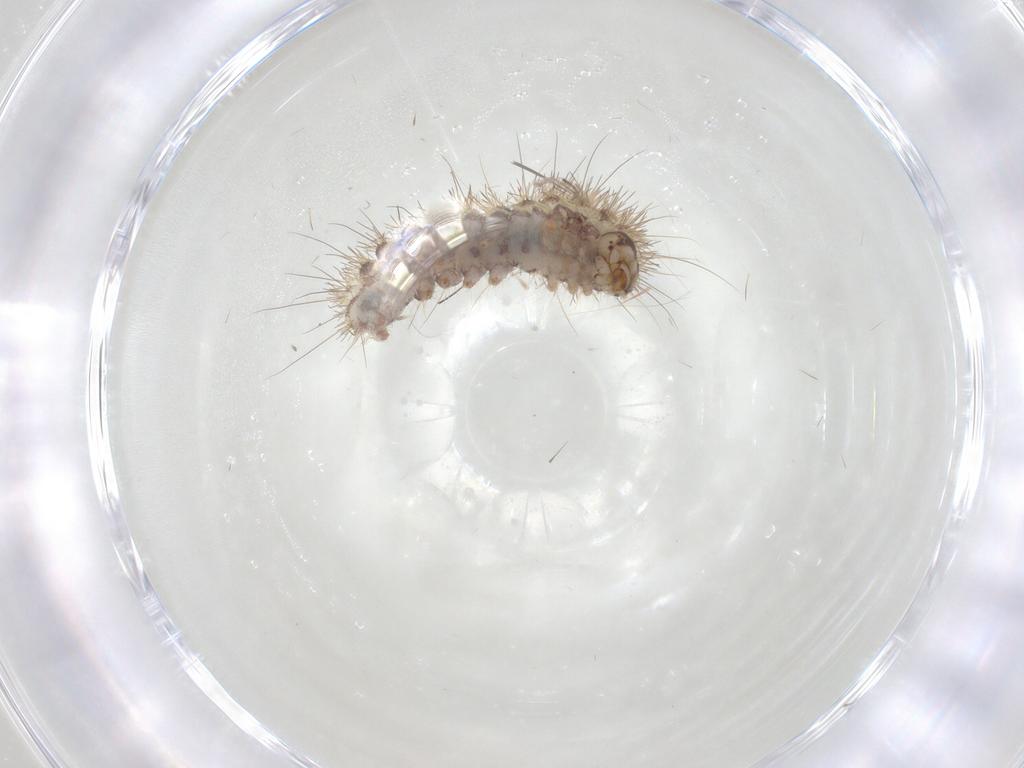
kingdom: Animalia
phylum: Arthropoda
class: Insecta
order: Lepidoptera
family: Erebidae
